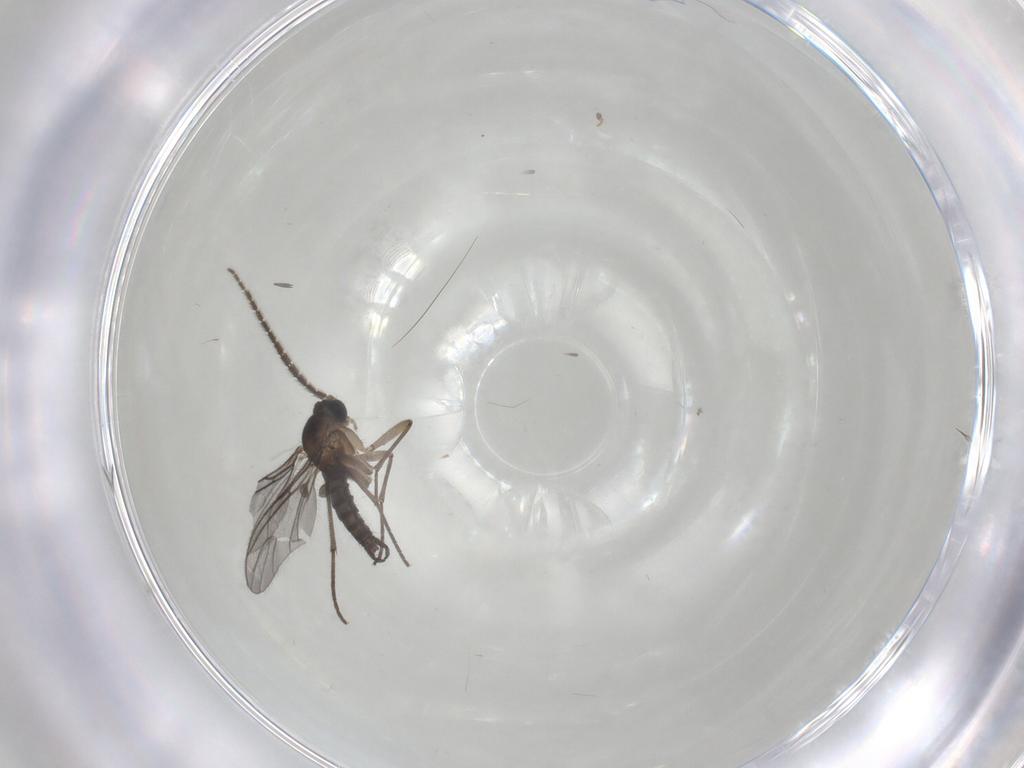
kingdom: Animalia
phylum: Arthropoda
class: Insecta
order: Diptera
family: Sciaridae
